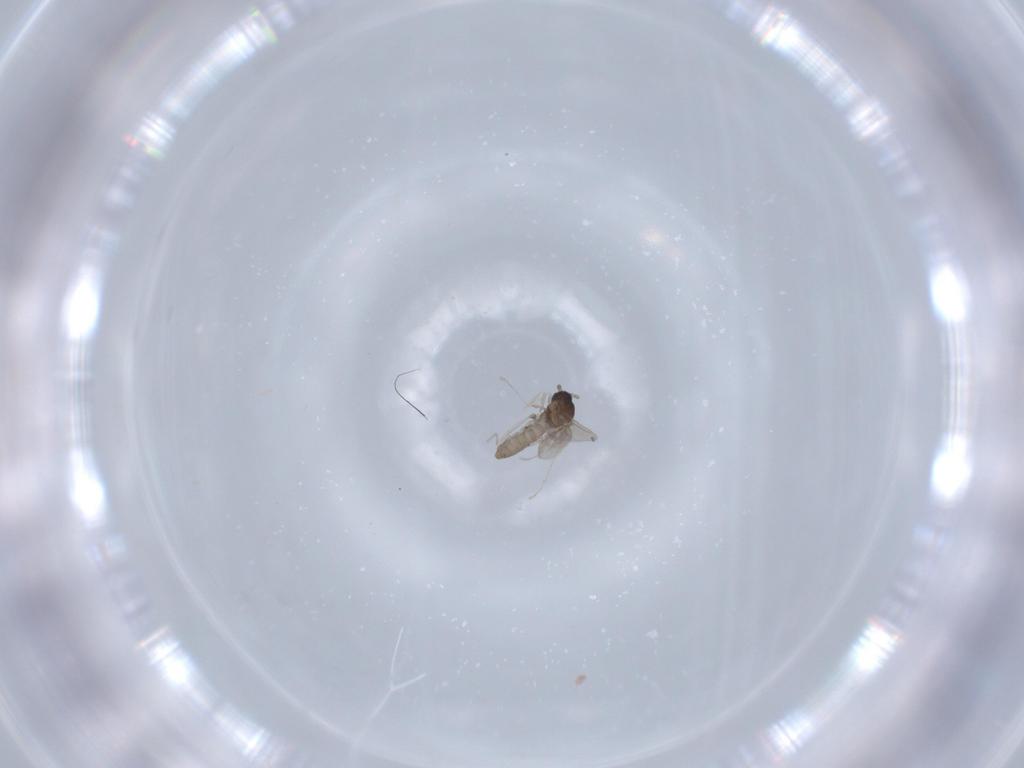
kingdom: Animalia
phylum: Arthropoda
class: Insecta
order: Diptera
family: Cecidomyiidae
